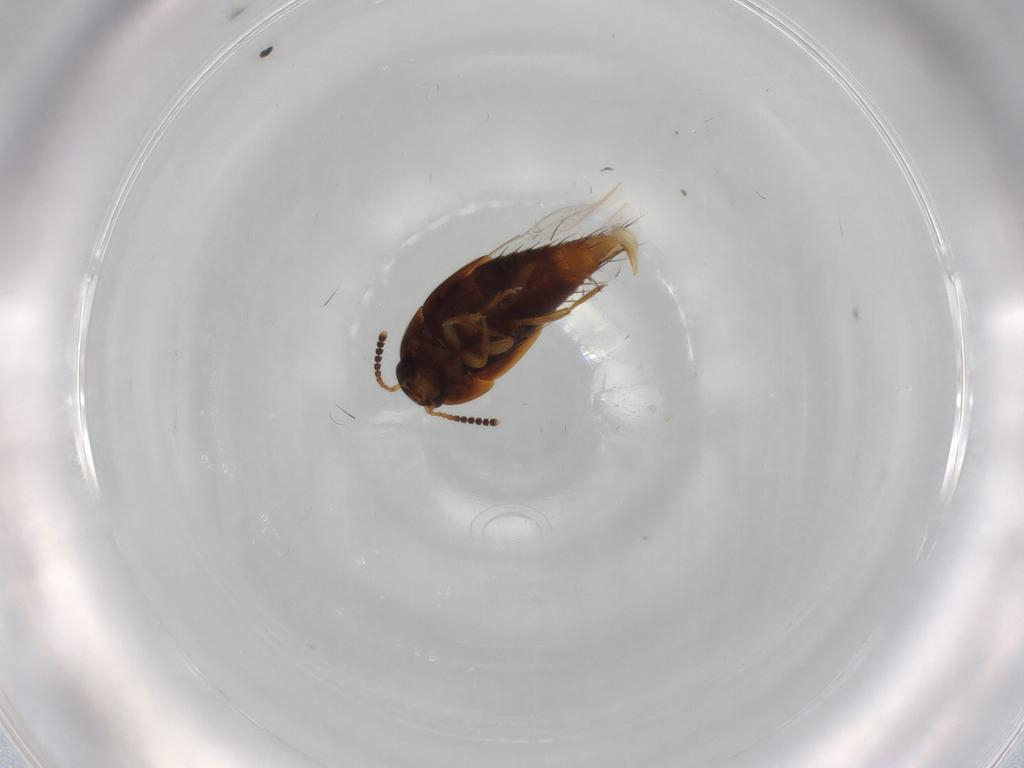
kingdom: Animalia
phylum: Arthropoda
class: Insecta
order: Coleoptera
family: Staphylinidae
